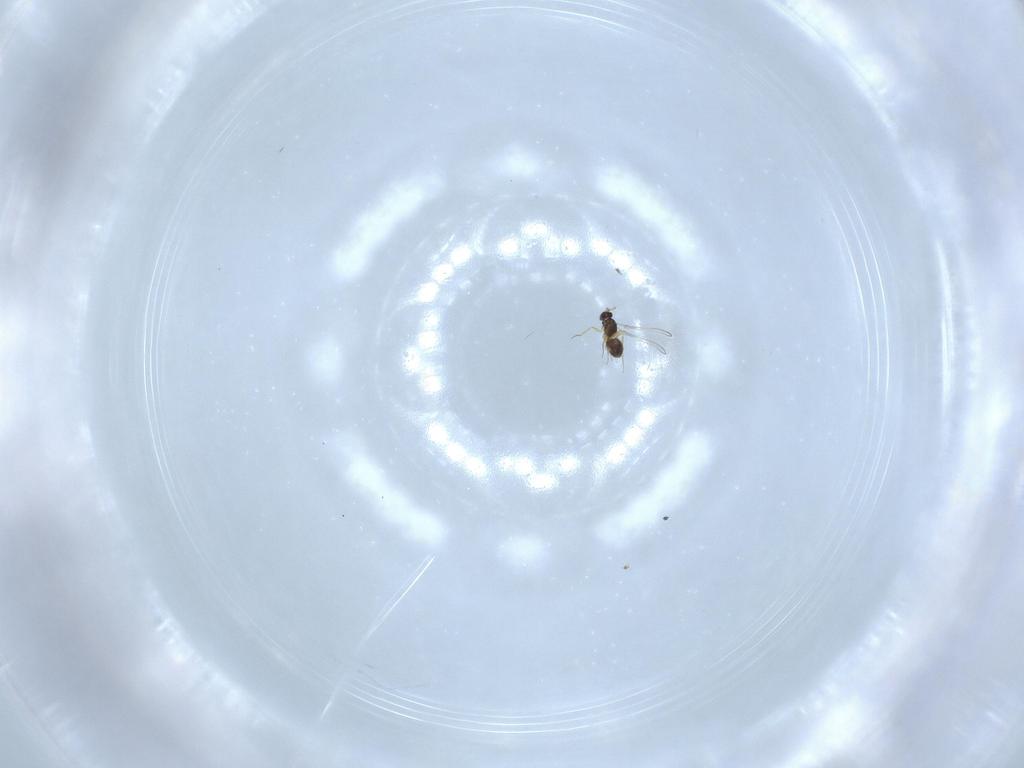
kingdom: Animalia
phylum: Arthropoda
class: Insecta
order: Hymenoptera
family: Mymaridae
